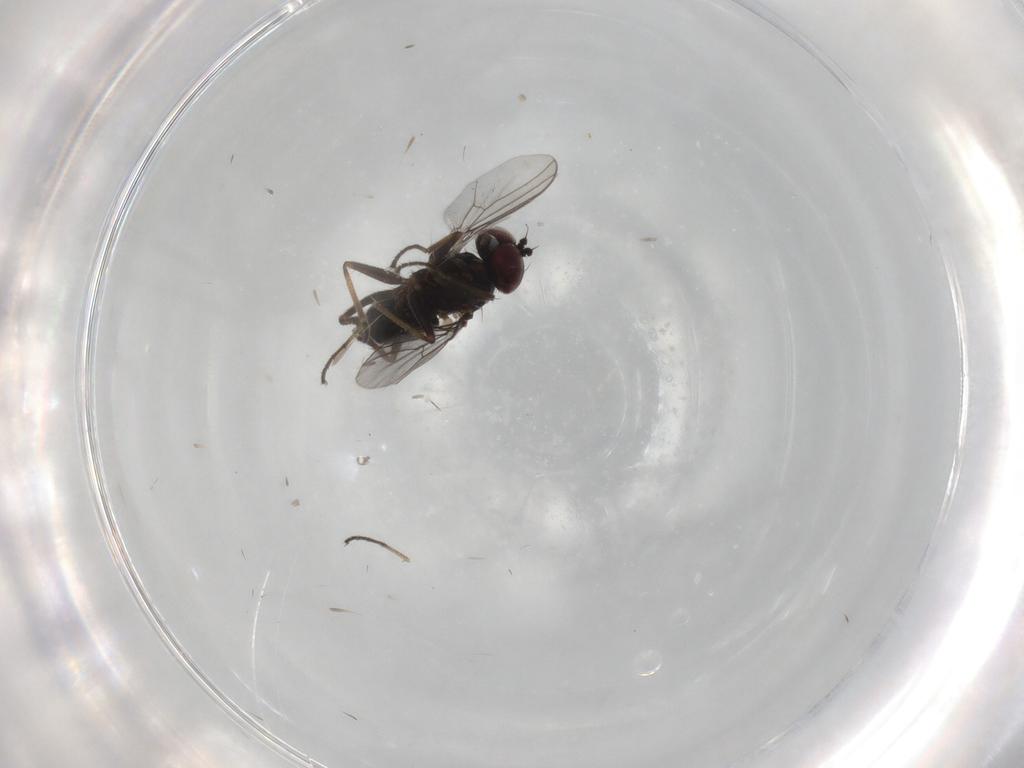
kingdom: Animalia
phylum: Arthropoda
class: Insecta
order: Diptera
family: Dolichopodidae
